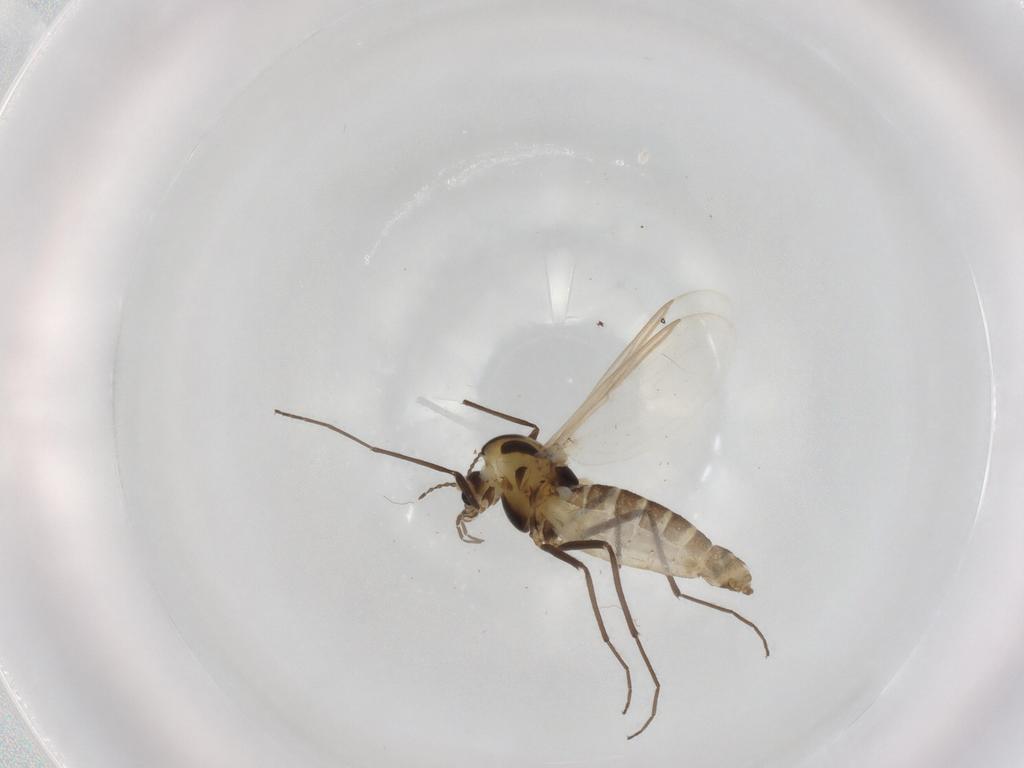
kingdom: Animalia
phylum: Arthropoda
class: Insecta
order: Diptera
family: Chironomidae
